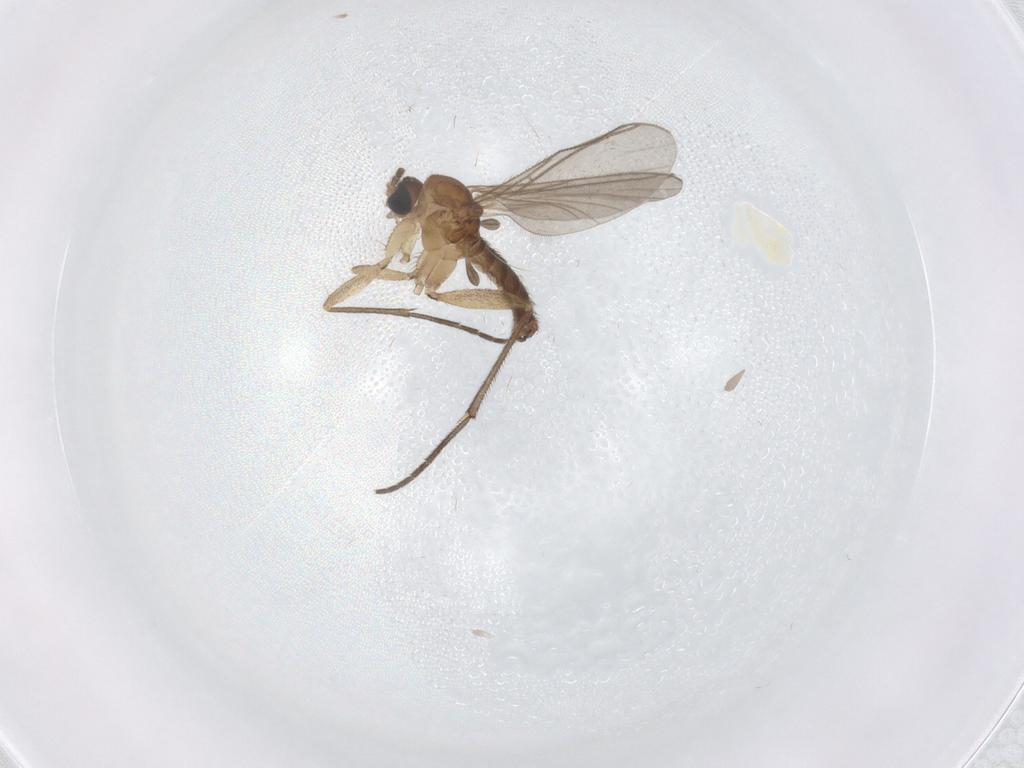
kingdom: Animalia
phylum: Arthropoda
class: Insecta
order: Diptera
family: Sciaridae
